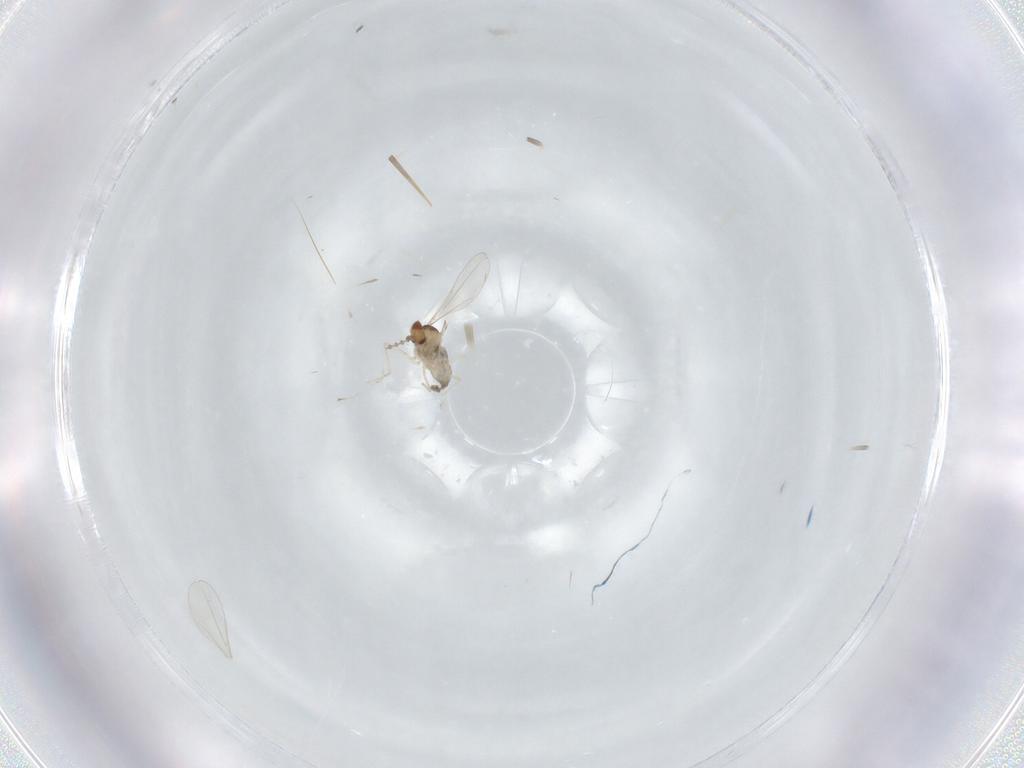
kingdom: Animalia
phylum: Arthropoda
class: Insecta
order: Diptera
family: Cecidomyiidae
